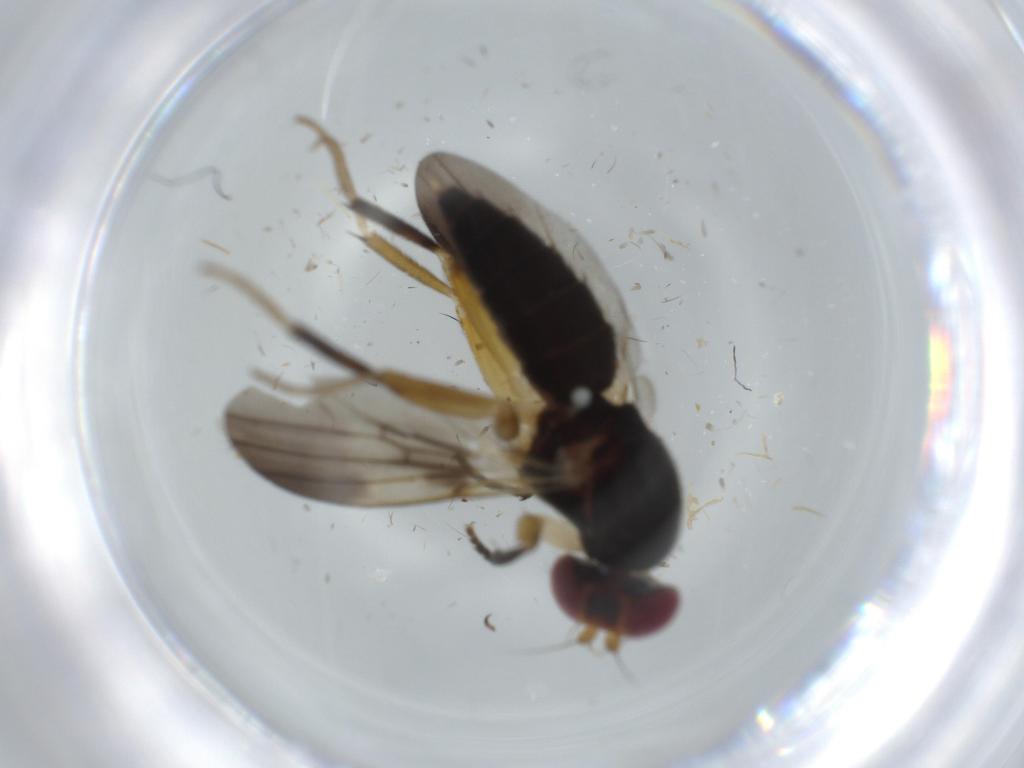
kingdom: Animalia
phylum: Arthropoda
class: Insecta
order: Diptera
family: Clusiidae
